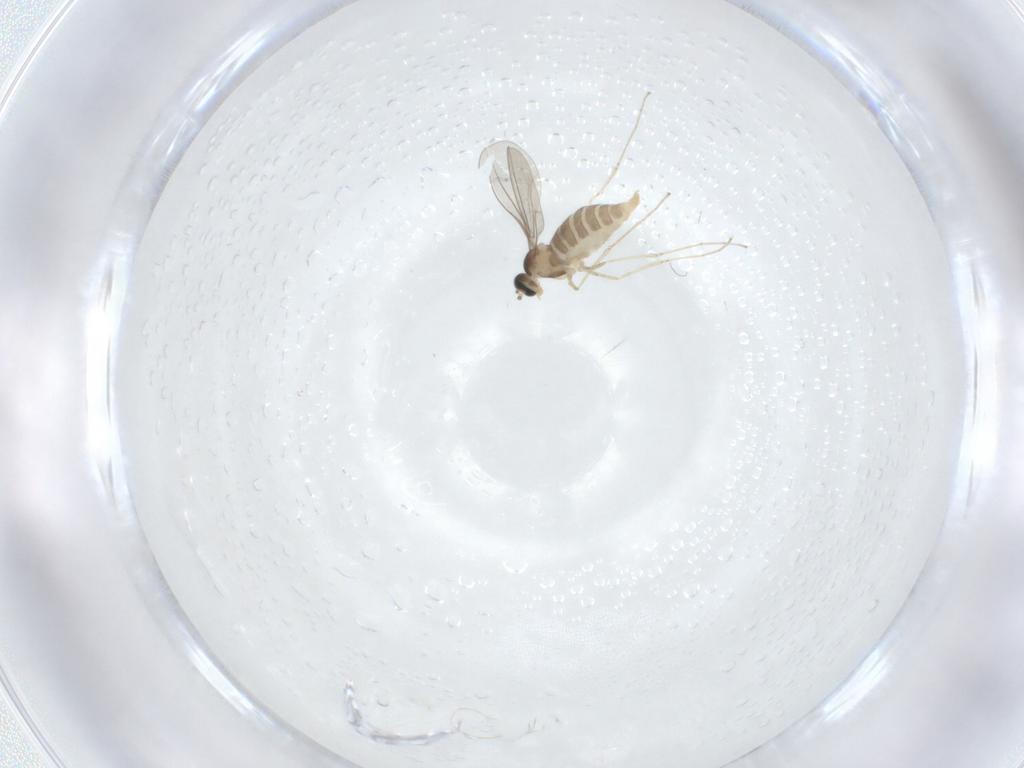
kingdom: Animalia
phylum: Arthropoda
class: Insecta
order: Diptera
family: Cecidomyiidae
